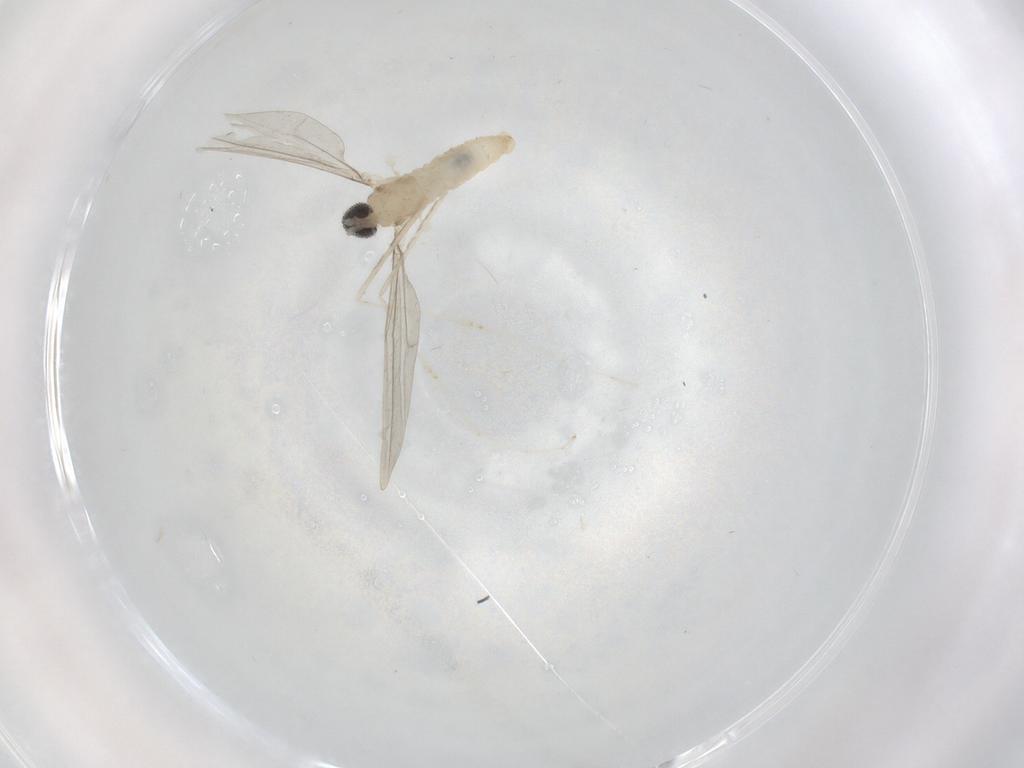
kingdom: Animalia
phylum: Arthropoda
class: Insecta
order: Diptera
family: Cecidomyiidae
